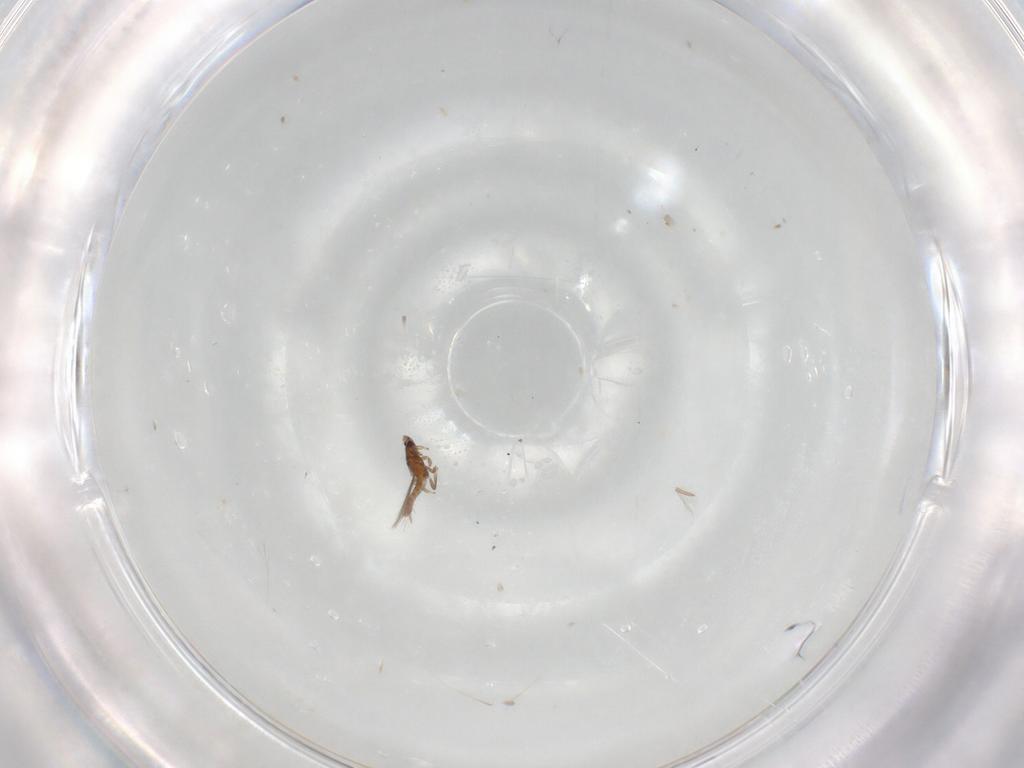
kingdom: Animalia
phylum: Arthropoda
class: Insecta
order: Thysanoptera
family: Thripidae
